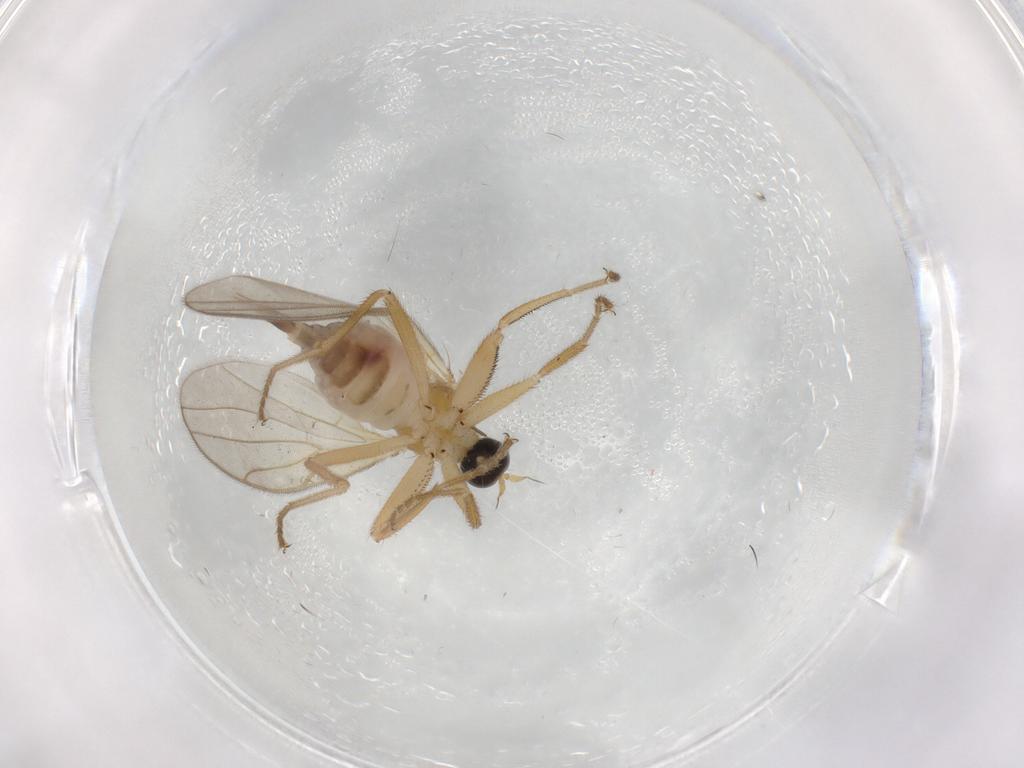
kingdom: Animalia
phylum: Arthropoda
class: Insecta
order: Diptera
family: Hybotidae
